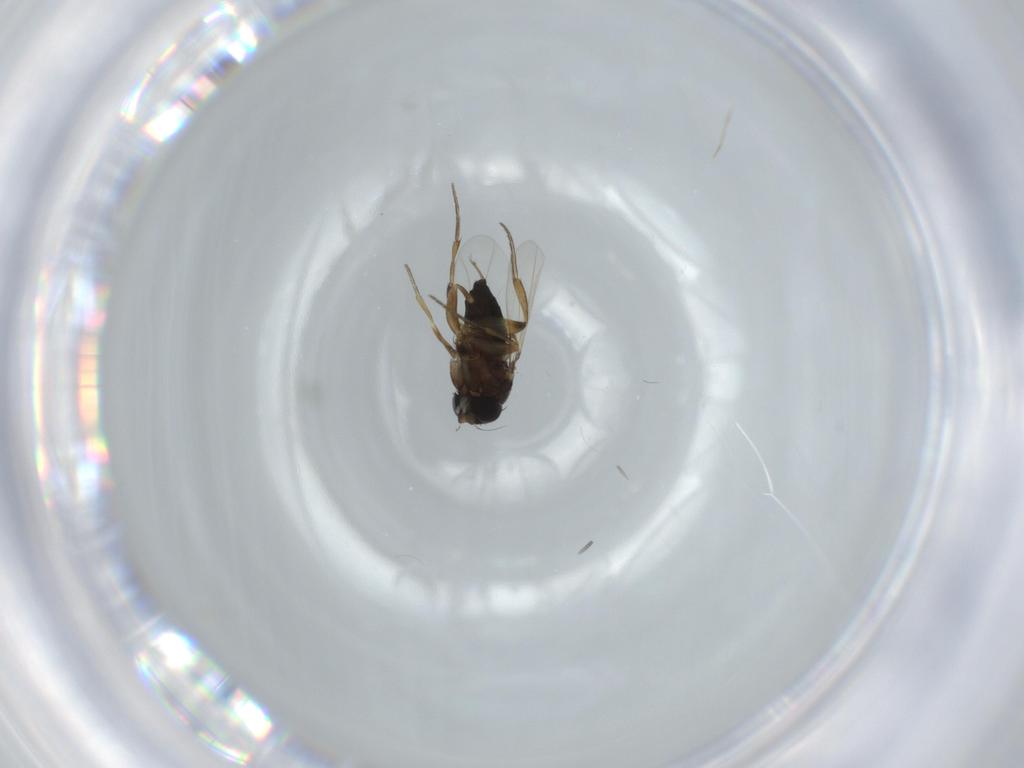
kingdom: Animalia
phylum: Arthropoda
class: Insecta
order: Diptera
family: Phoridae
